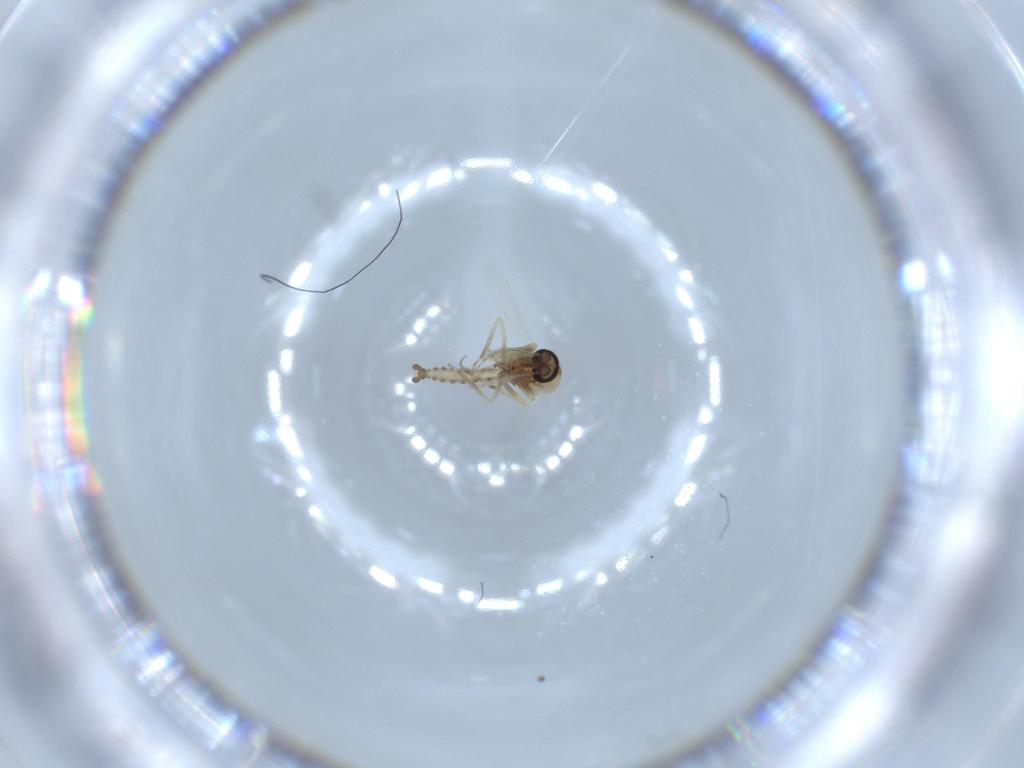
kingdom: Animalia
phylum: Arthropoda
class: Insecta
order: Diptera
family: Ceratopogonidae
